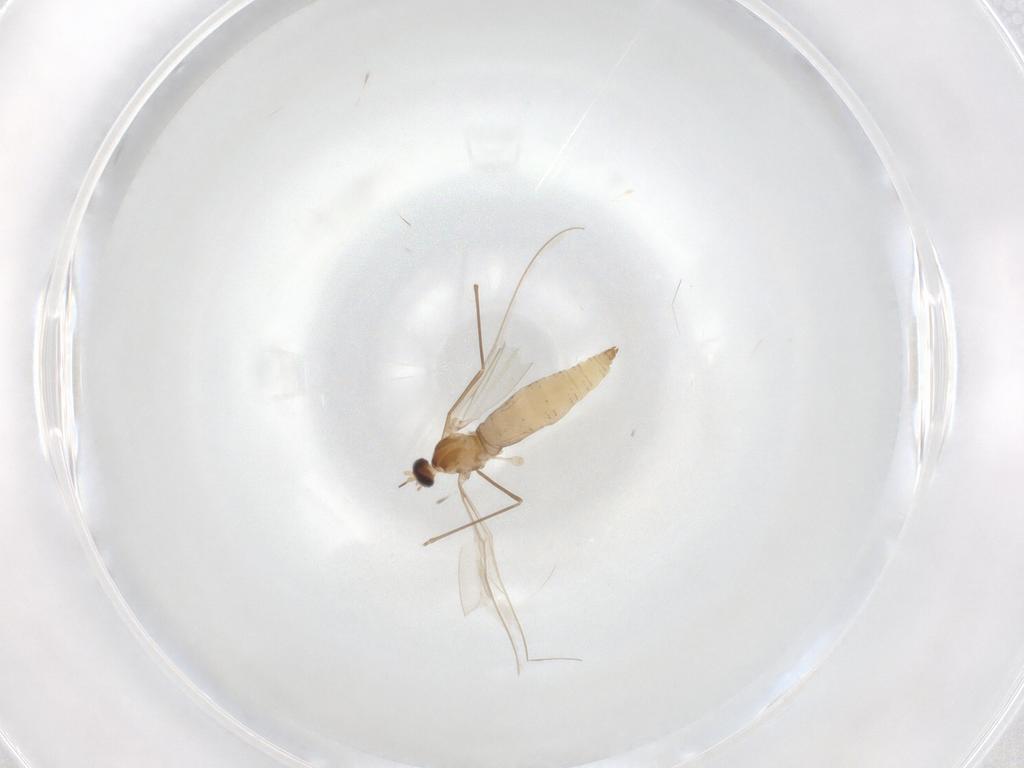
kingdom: Animalia
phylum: Arthropoda
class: Insecta
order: Diptera
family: Cecidomyiidae
